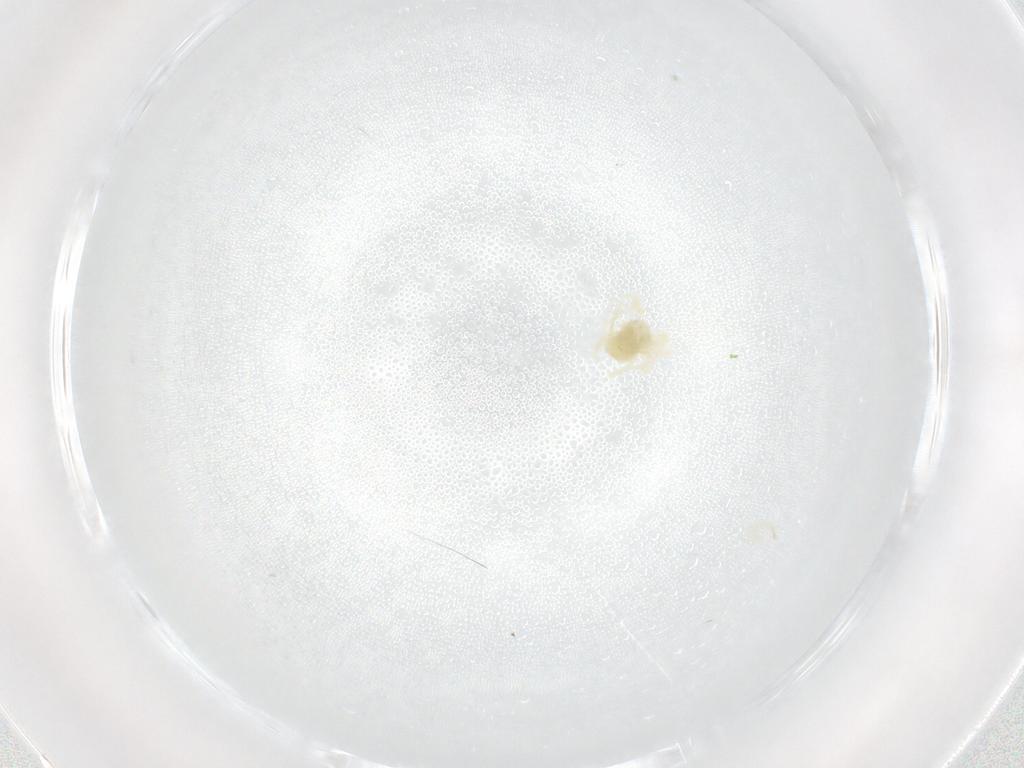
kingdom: Animalia
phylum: Arthropoda
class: Arachnida
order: Trombidiformes
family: Anystidae
